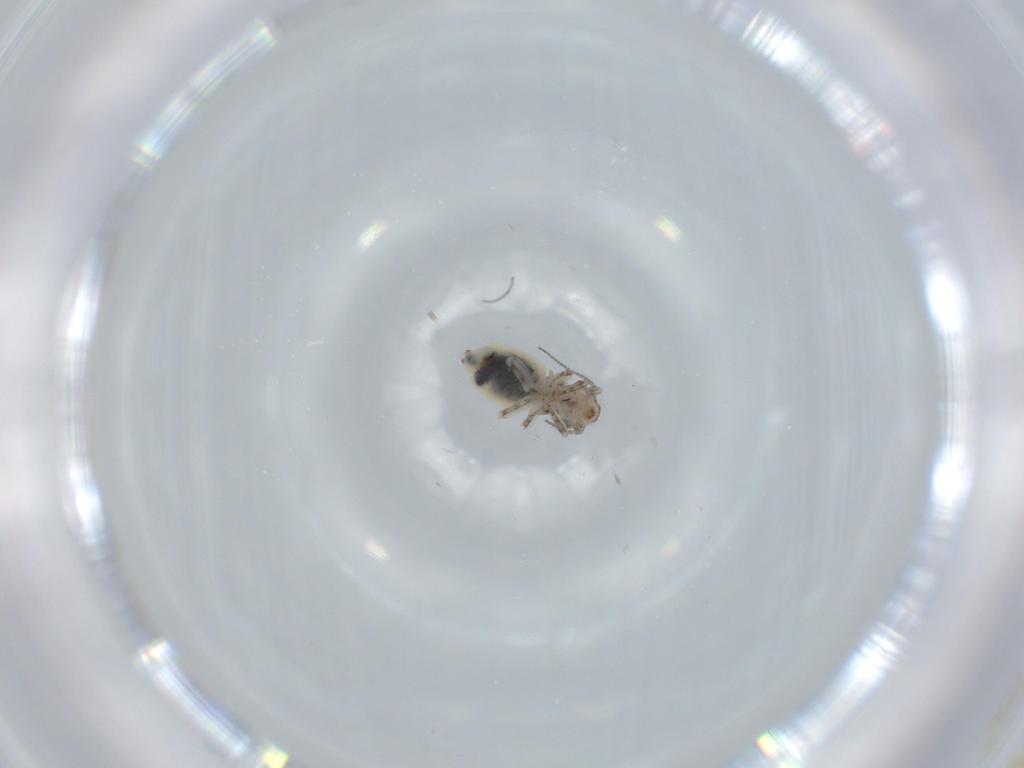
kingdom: Animalia
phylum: Arthropoda
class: Insecta
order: Psocodea
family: Lepidopsocidae
